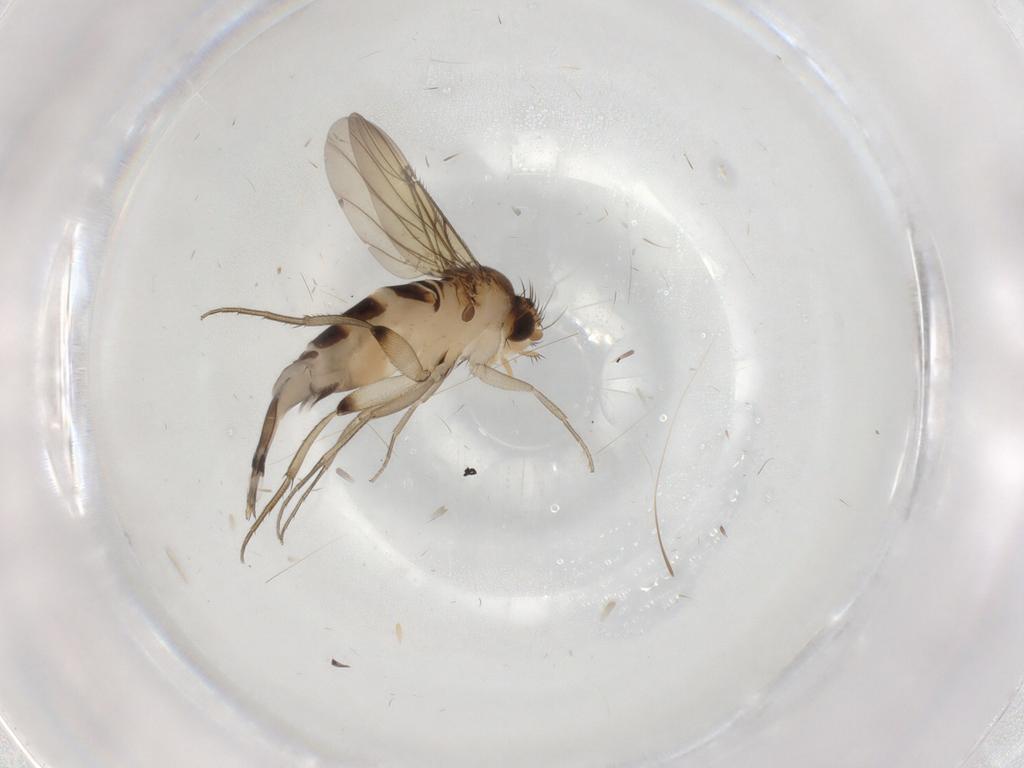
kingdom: Animalia
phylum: Arthropoda
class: Insecta
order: Diptera
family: Phoridae
